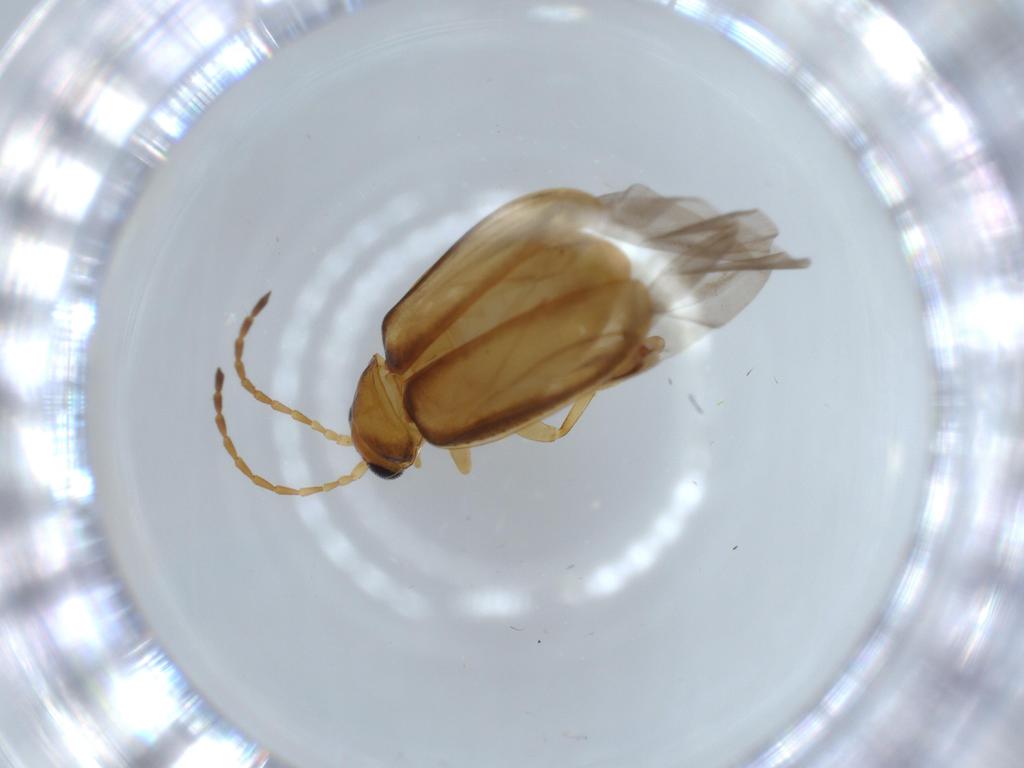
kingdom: Animalia
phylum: Arthropoda
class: Insecta
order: Coleoptera
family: Chrysomelidae
